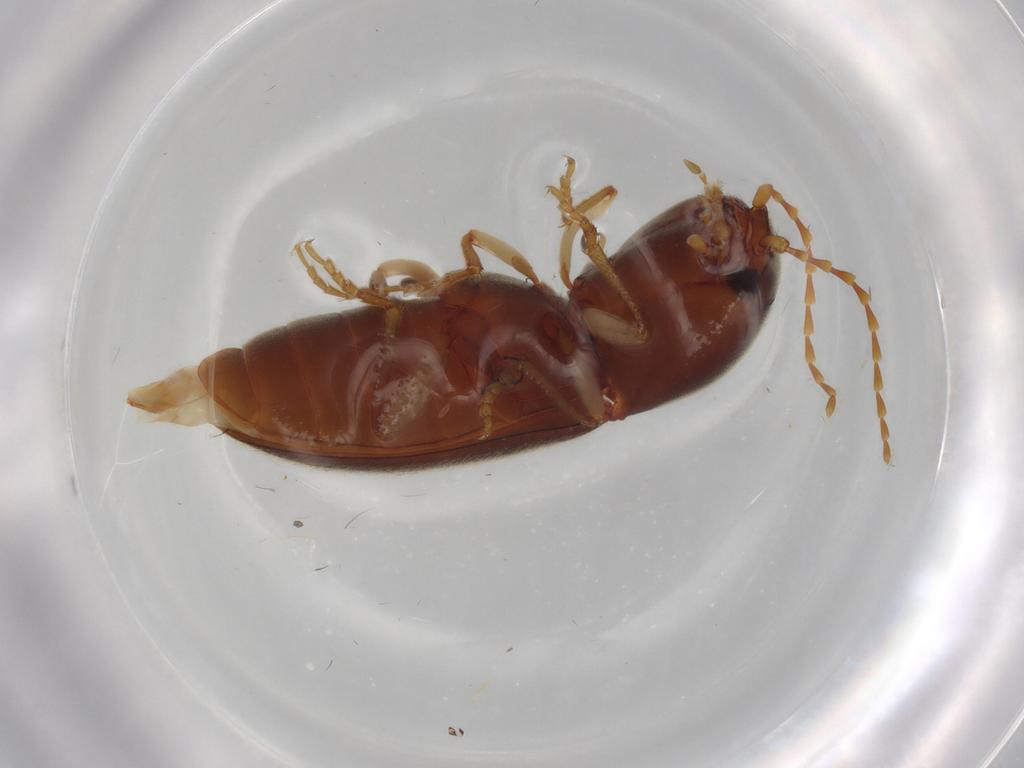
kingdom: Animalia
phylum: Arthropoda
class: Insecta
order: Coleoptera
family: Elateridae
